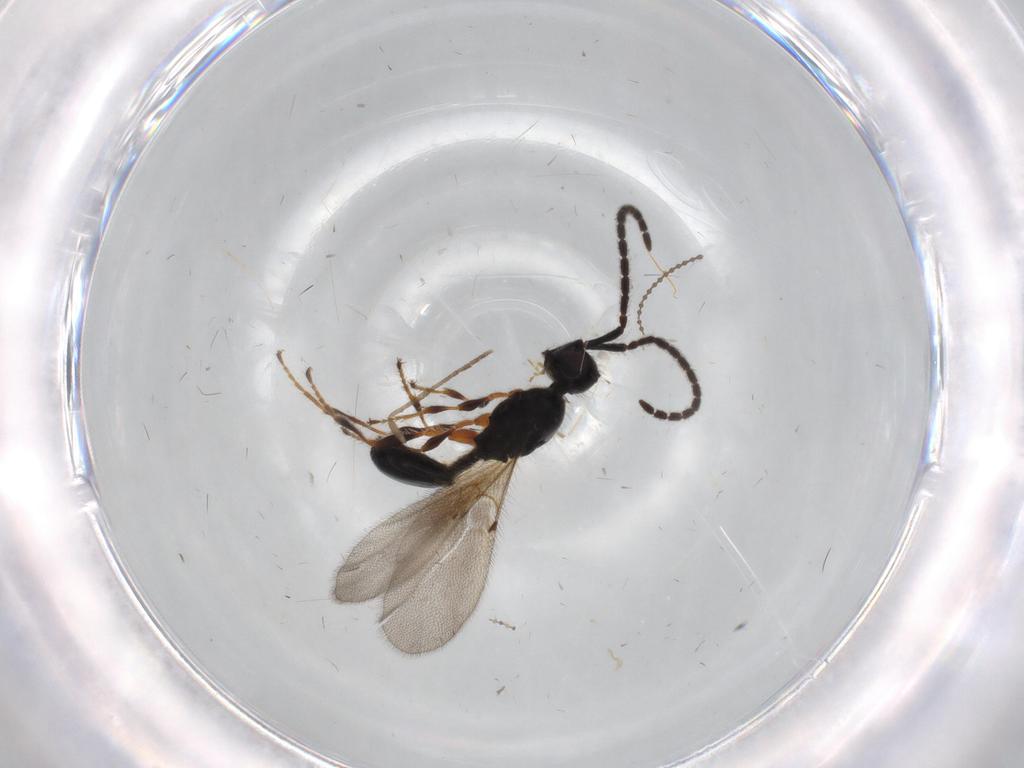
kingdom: Animalia
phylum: Arthropoda
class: Insecta
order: Hymenoptera
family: Diapriidae
